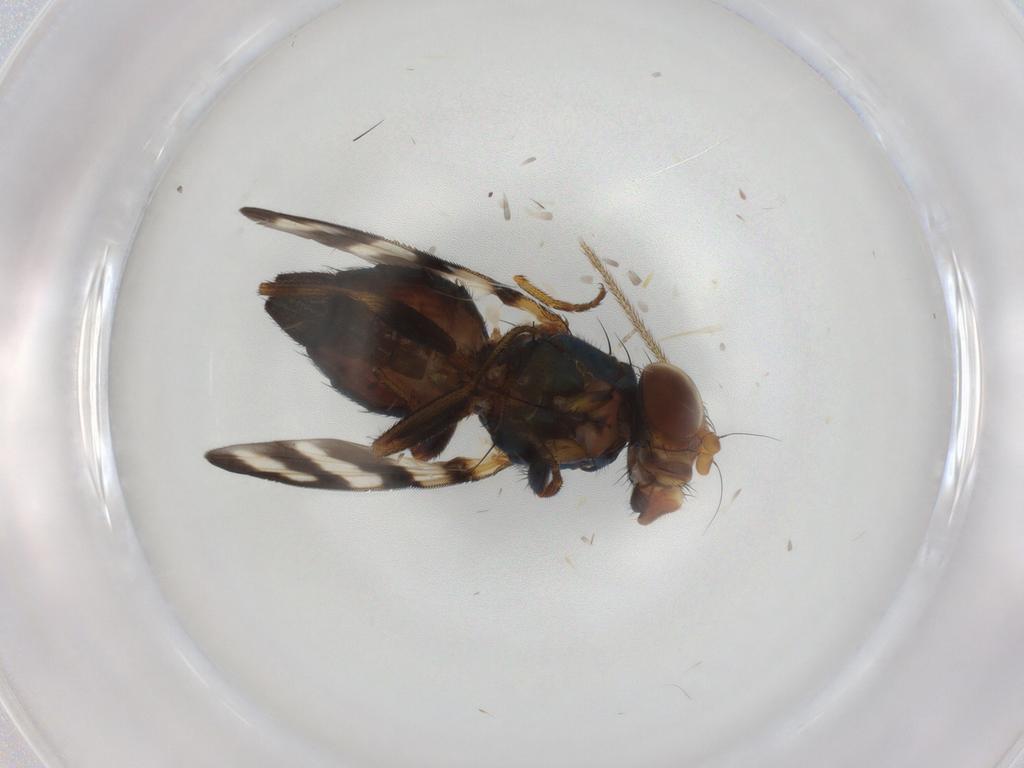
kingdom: Animalia
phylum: Arthropoda
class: Insecta
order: Diptera
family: Ulidiidae
